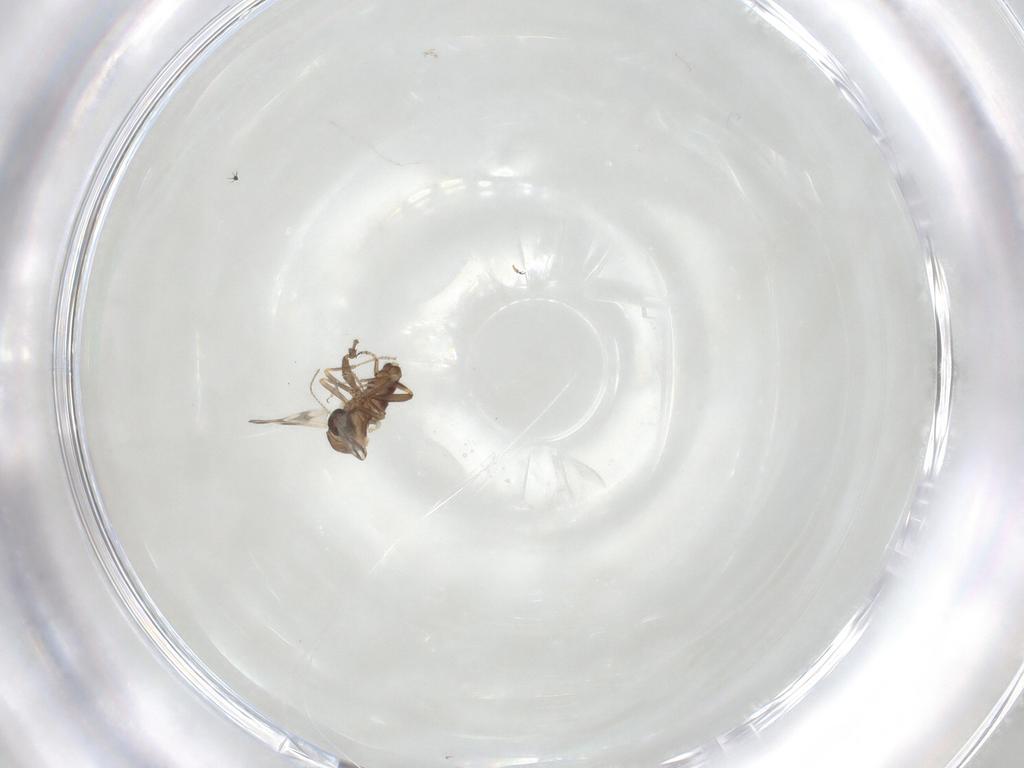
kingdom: Animalia
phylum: Arthropoda
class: Insecta
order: Diptera
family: Ceratopogonidae
